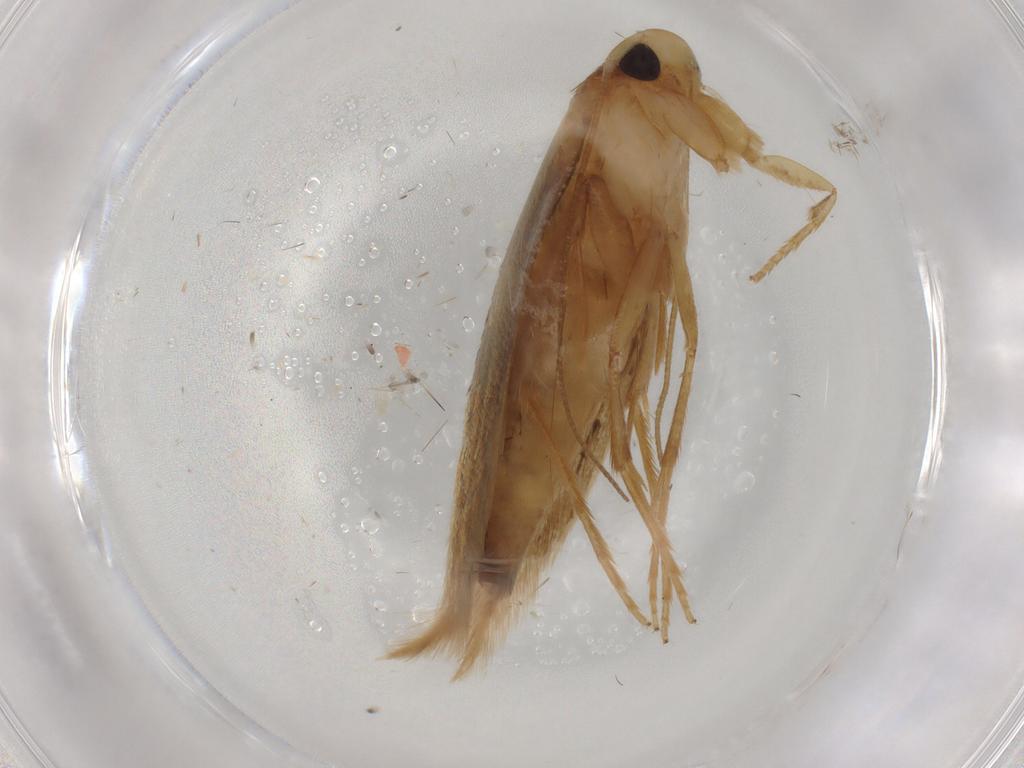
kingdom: Animalia
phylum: Arthropoda
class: Insecta
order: Lepidoptera
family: Tineidae
